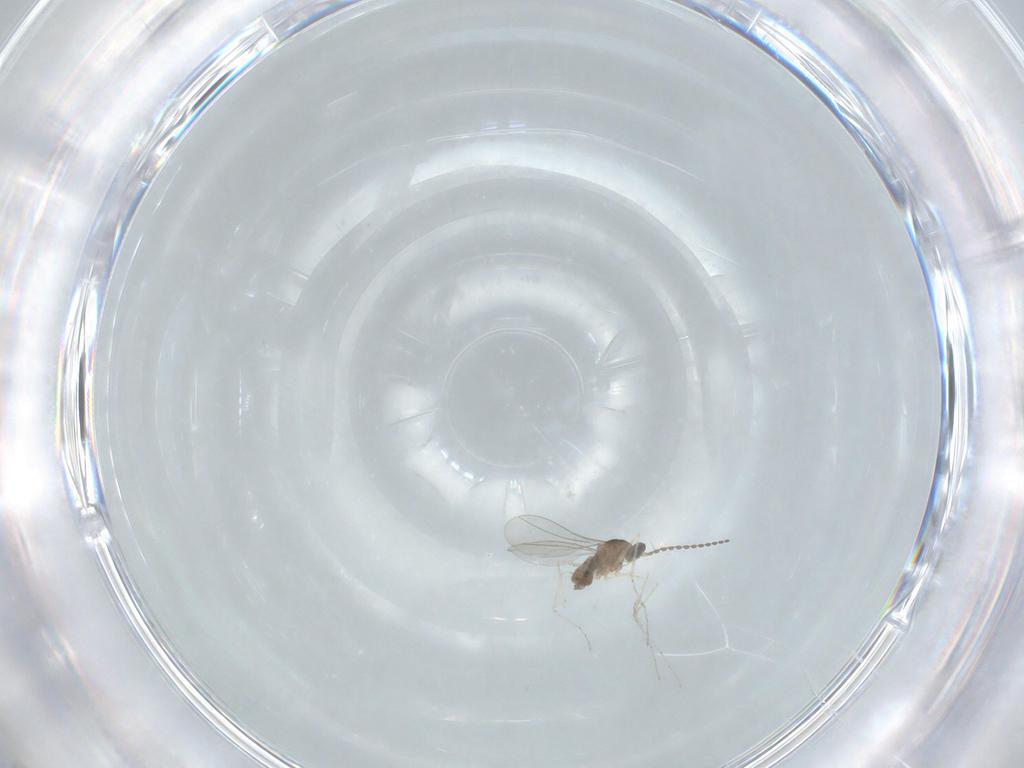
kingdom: Animalia
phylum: Arthropoda
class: Insecta
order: Diptera
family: Cecidomyiidae
